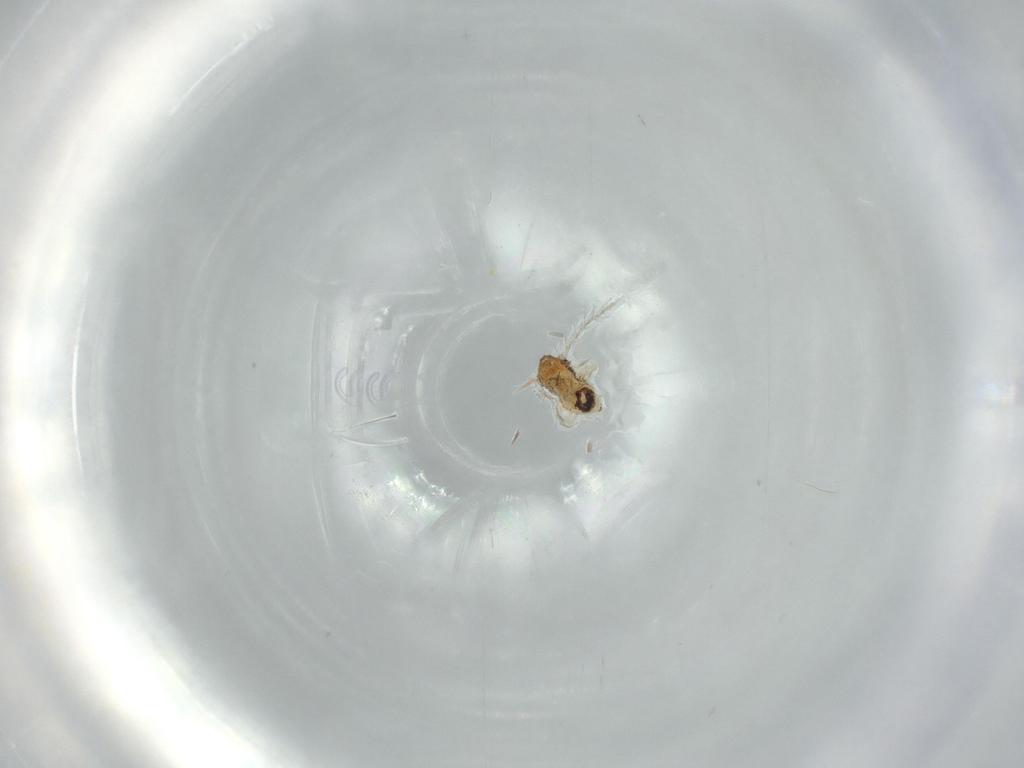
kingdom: Animalia
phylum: Arthropoda
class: Insecta
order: Psocodea
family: Pseudocaeciliidae
